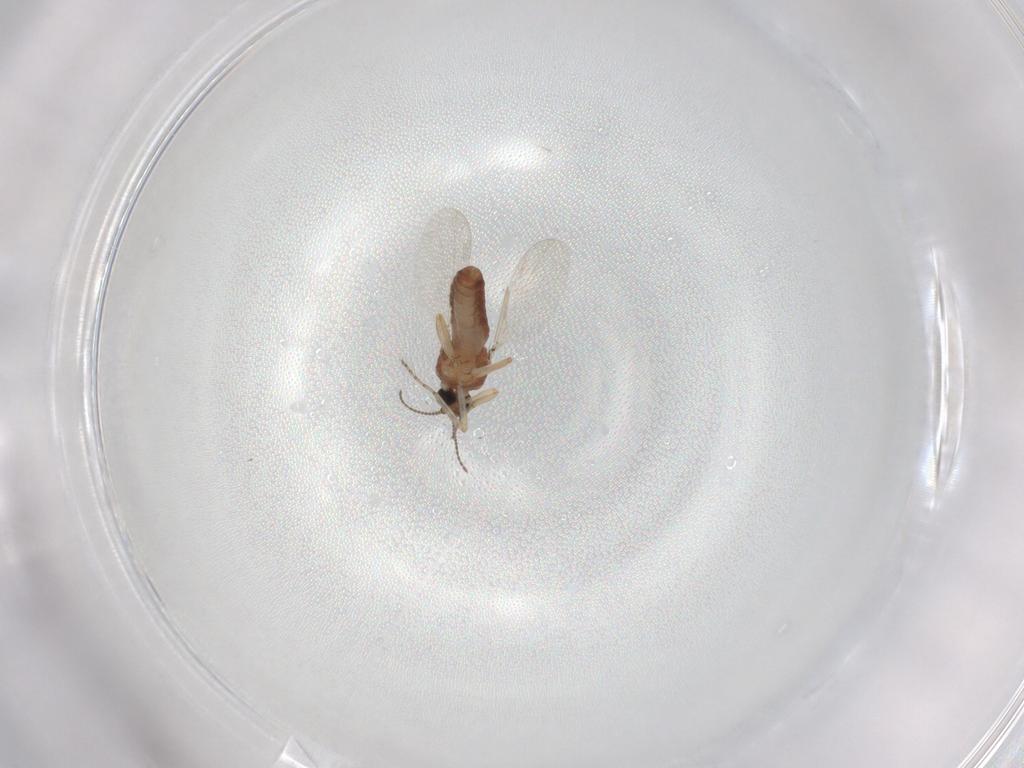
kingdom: Animalia
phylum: Arthropoda
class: Insecta
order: Diptera
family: Ceratopogonidae
